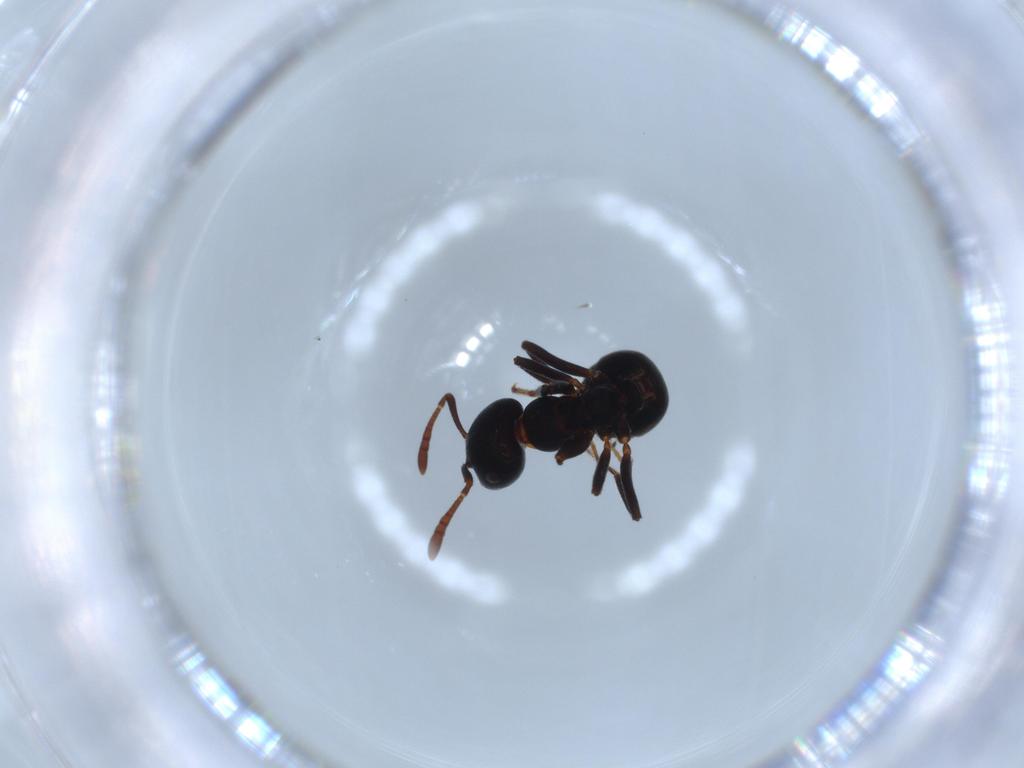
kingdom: Animalia
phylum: Arthropoda
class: Insecta
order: Hymenoptera
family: Formicidae
